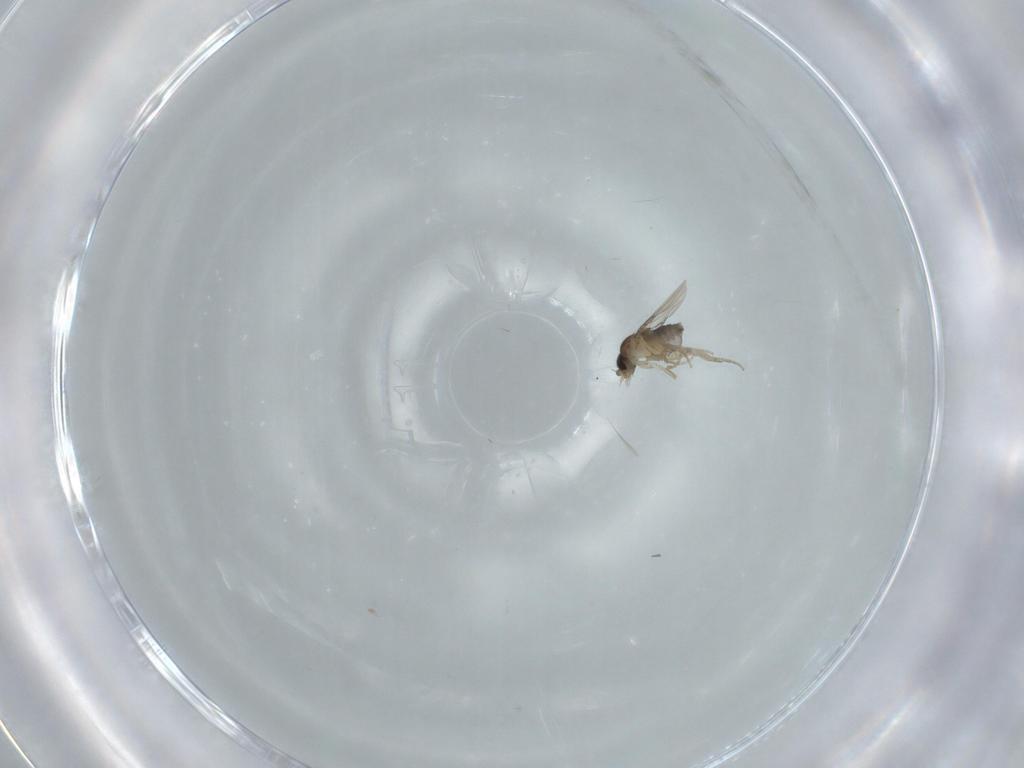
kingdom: Animalia
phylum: Arthropoda
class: Insecta
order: Diptera
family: Phoridae
